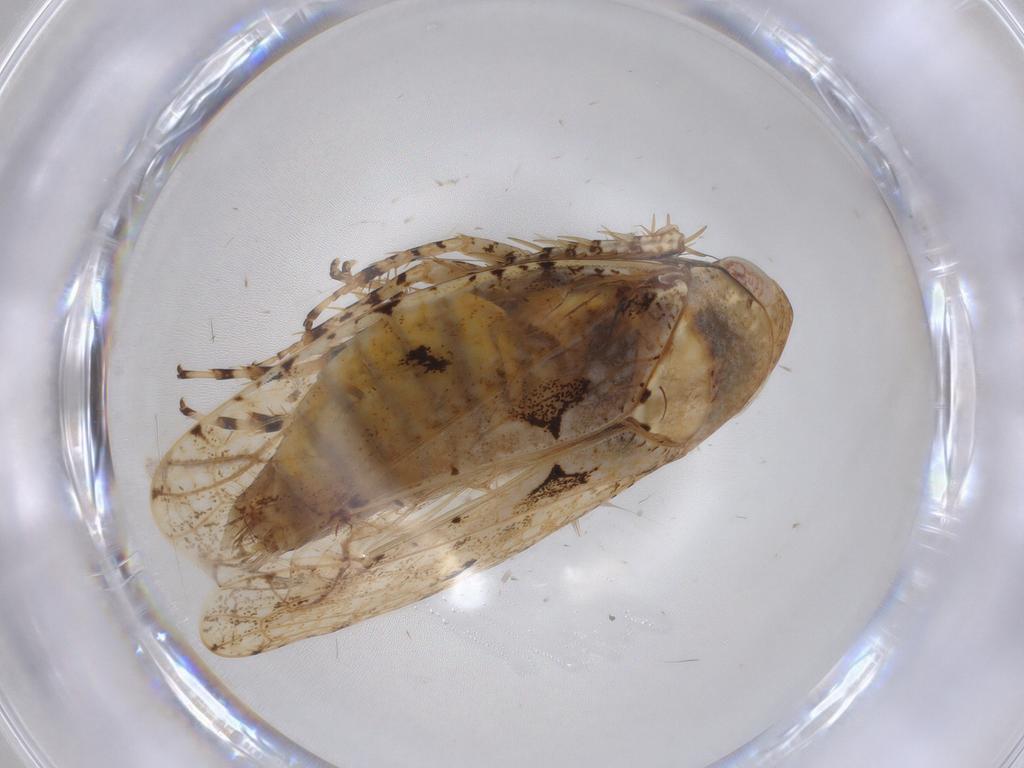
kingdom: Animalia
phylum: Arthropoda
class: Insecta
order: Hemiptera
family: Cicadellidae
